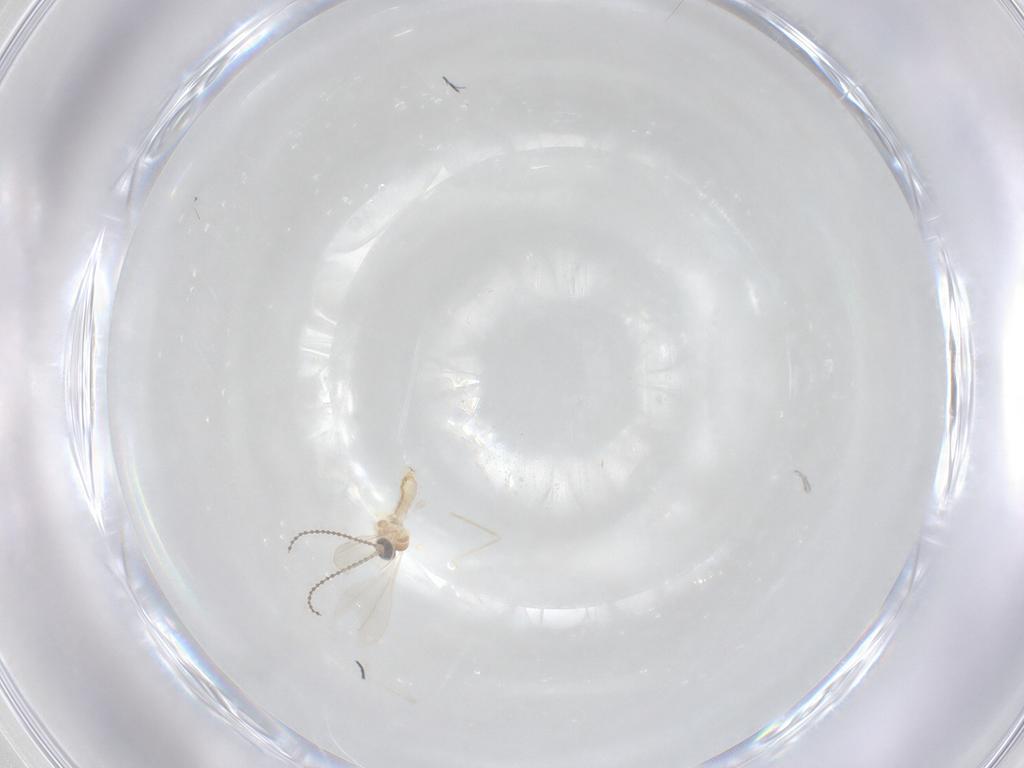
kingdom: Animalia
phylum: Arthropoda
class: Insecta
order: Diptera
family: Cecidomyiidae
